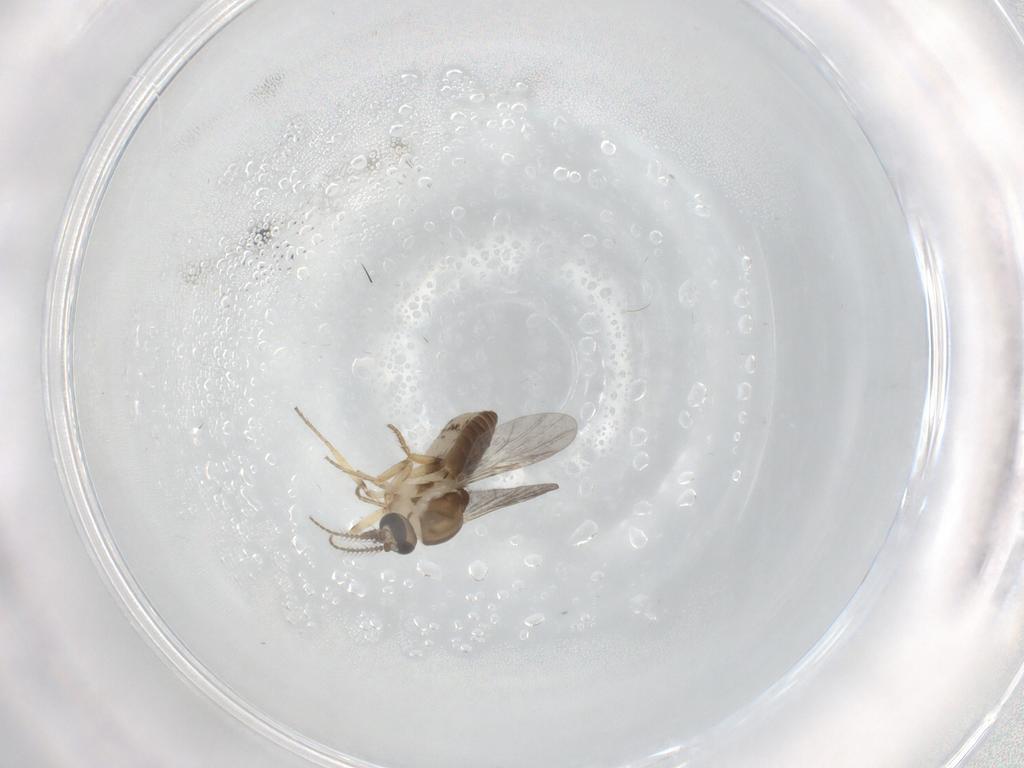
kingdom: Animalia
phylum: Arthropoda
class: Insecta
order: Diptera
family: Ceratopogonidae
